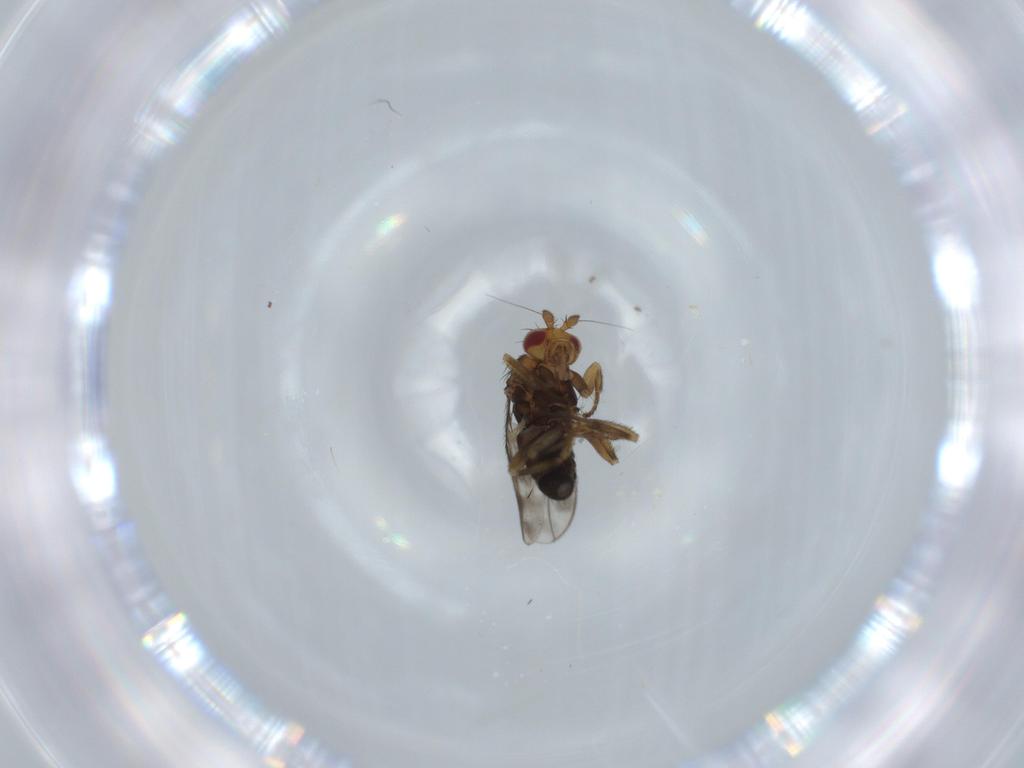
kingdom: Animalia
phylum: Arthropoda
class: Insecta
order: Diptera
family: Sphaeroceridae
